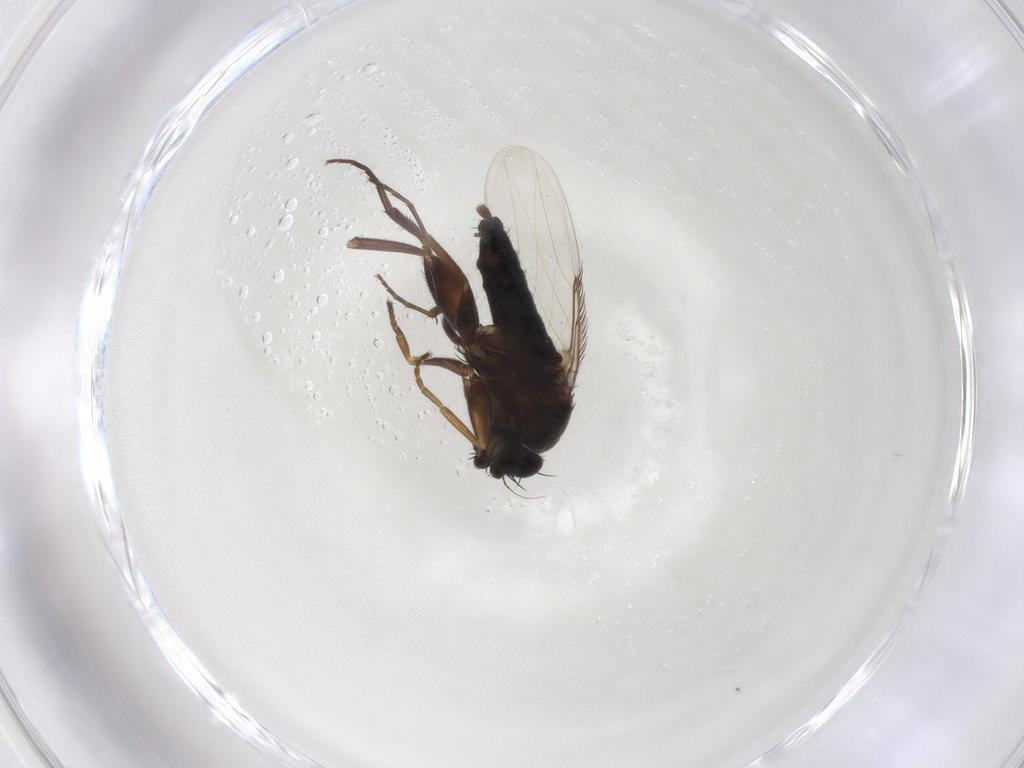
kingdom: Animalia
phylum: Arthropoda
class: Insecta
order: Diptera
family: Phoridae
